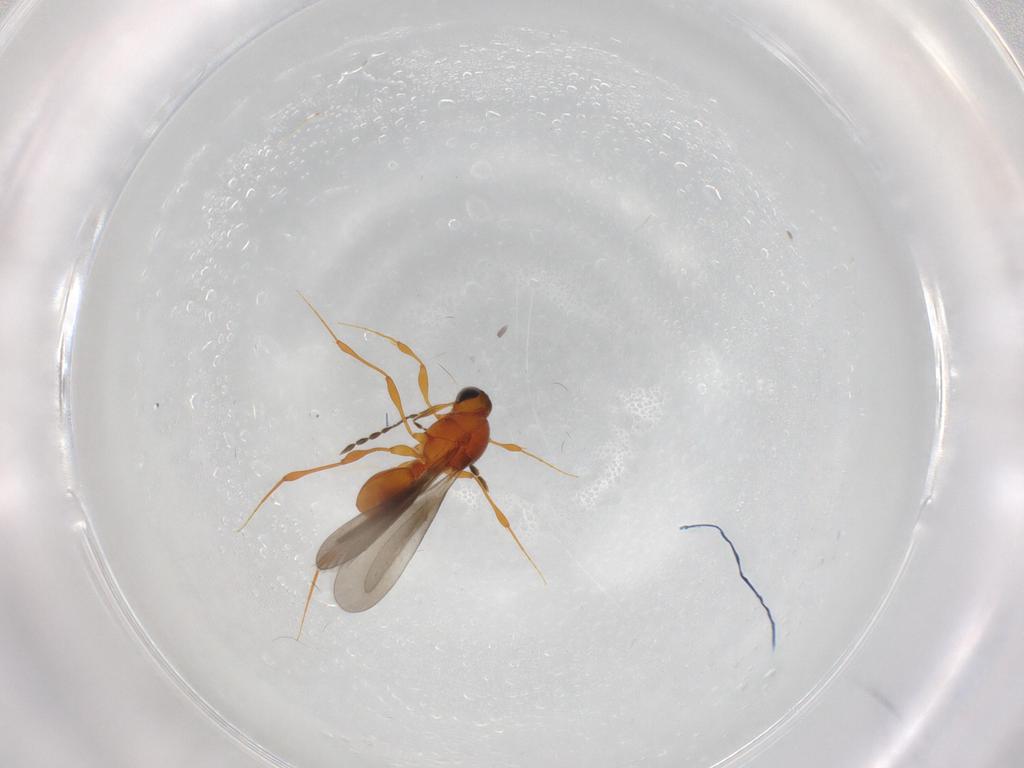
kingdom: Animalia
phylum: Arthropoda
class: Insecta
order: Hymenoptera
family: Platygastridae
